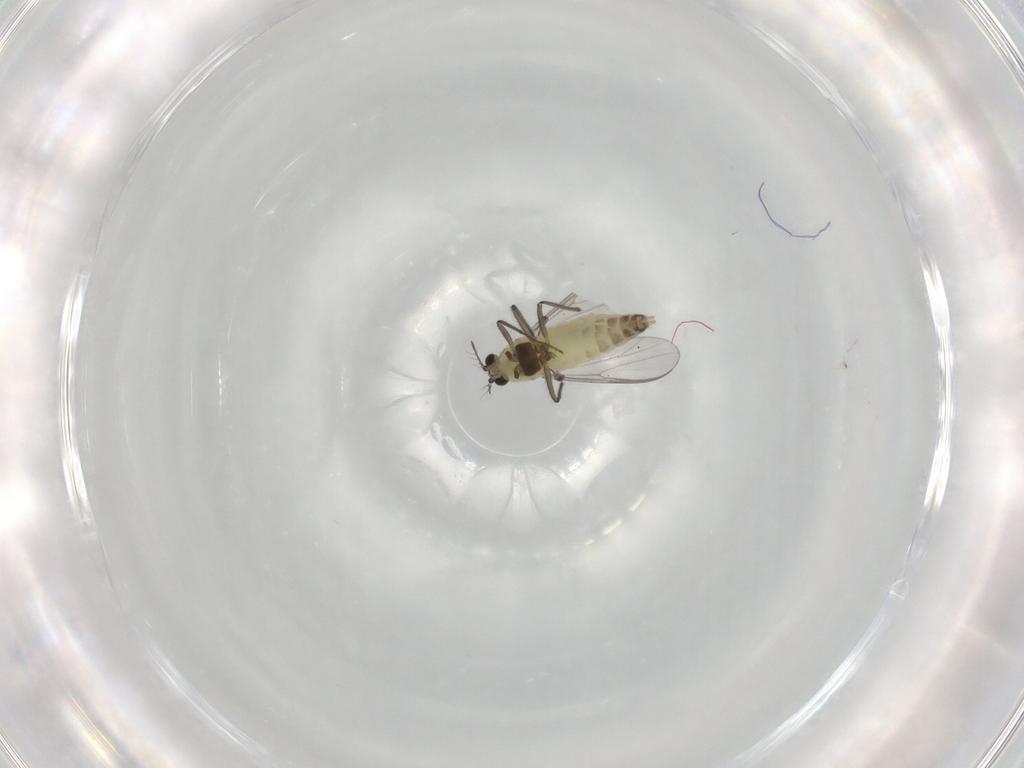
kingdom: Animalia
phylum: Arthropoda
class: Insecta
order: Diptera
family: Chironomidae
